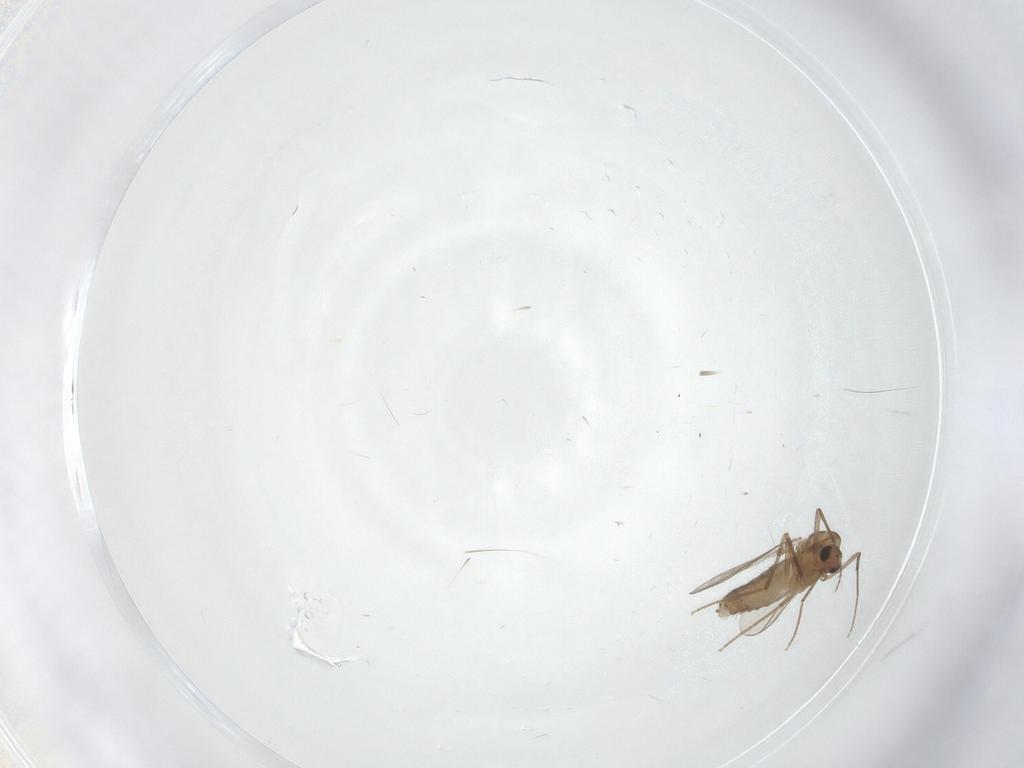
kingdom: Animalia
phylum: Arthropoda
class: Insecta
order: Diptera
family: Chironomidae
